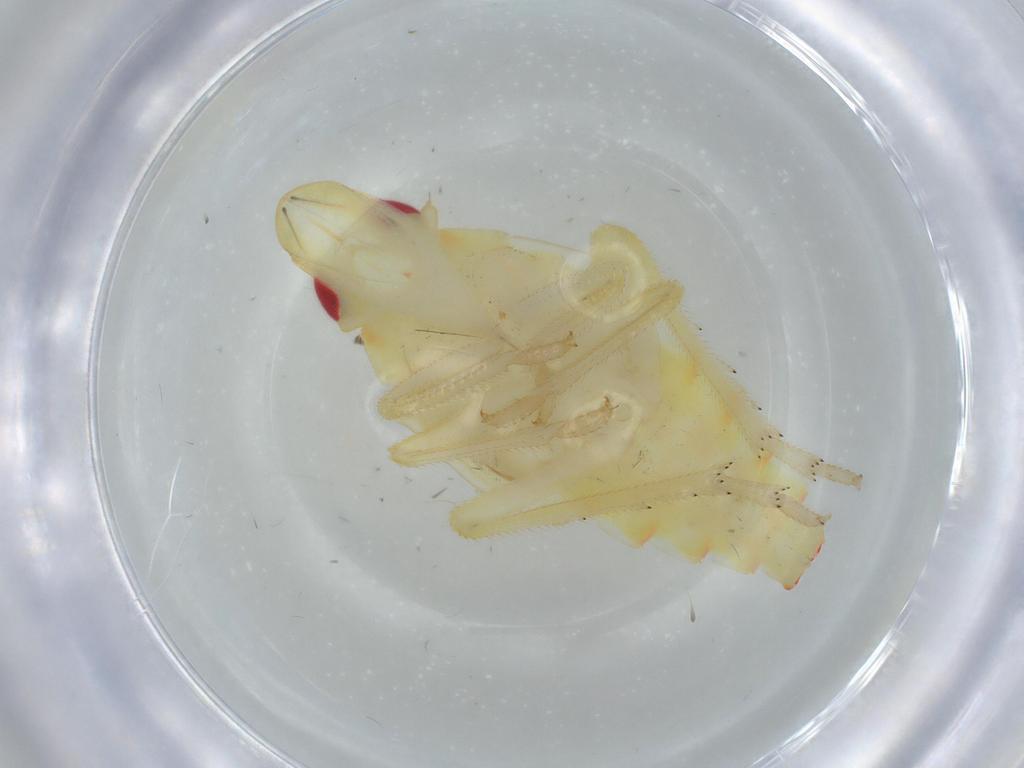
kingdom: Animalia
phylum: Arthropoda
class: Insecta
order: Hemiptera
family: Tropiduchidae
